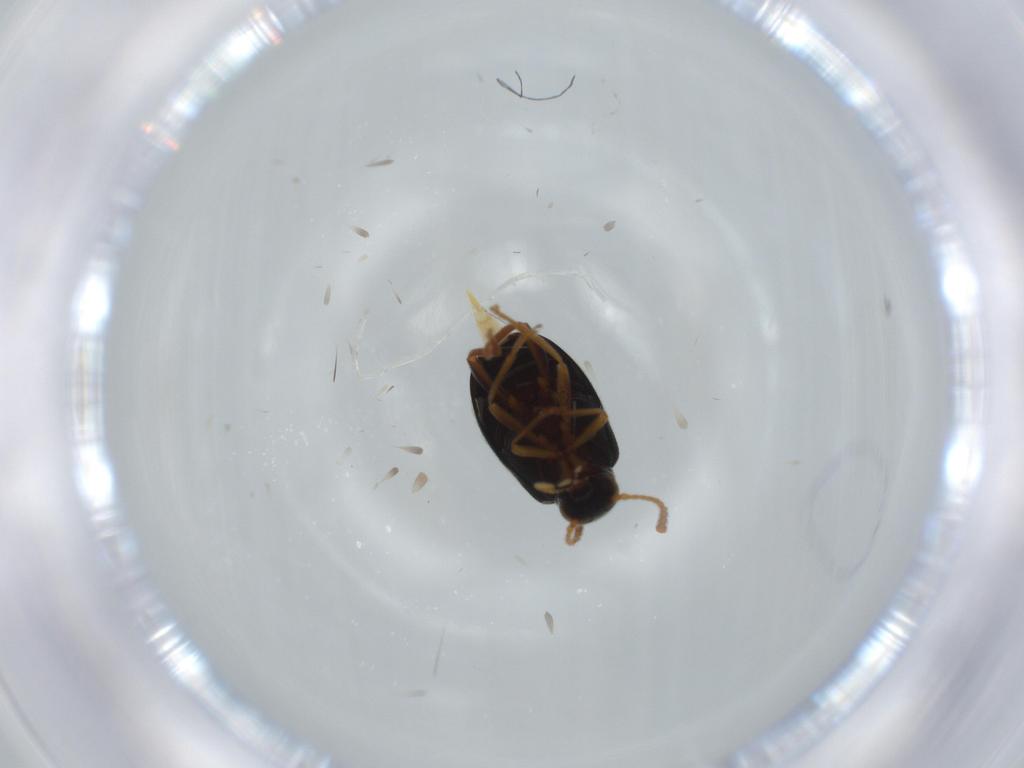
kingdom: Animalia
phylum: Arthropoda
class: Insecta
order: Coleoptera
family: Aderidae
